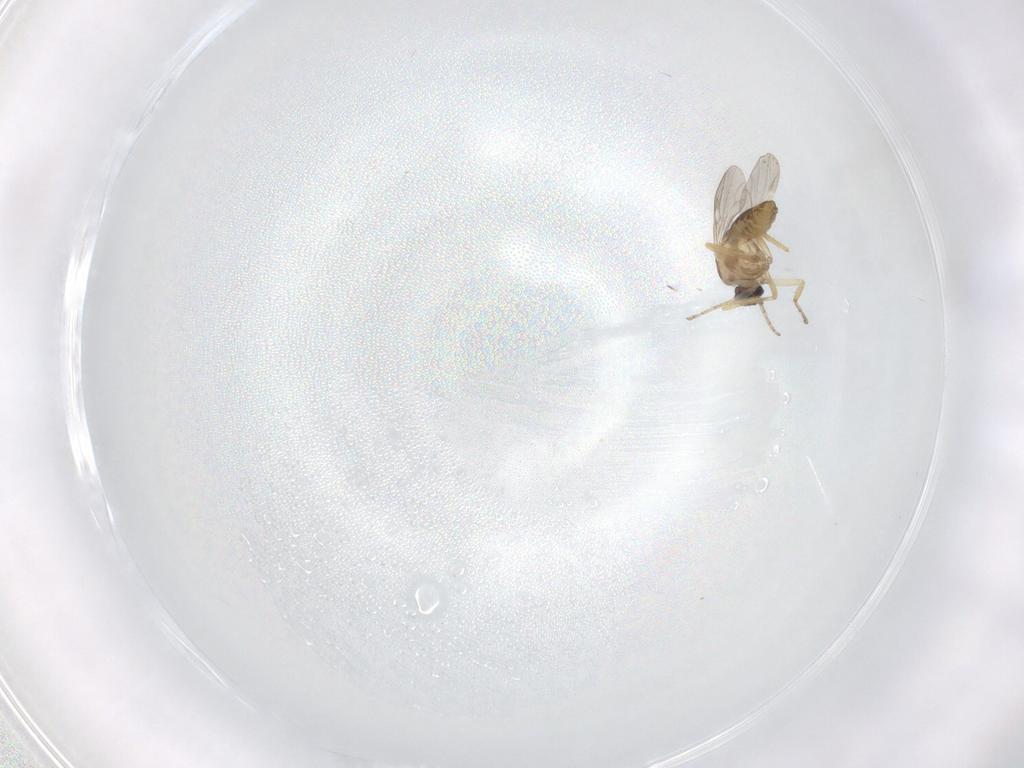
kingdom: Animalia
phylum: Arthropoda
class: Insecta
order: Diptera
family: Ceratopogonidae
